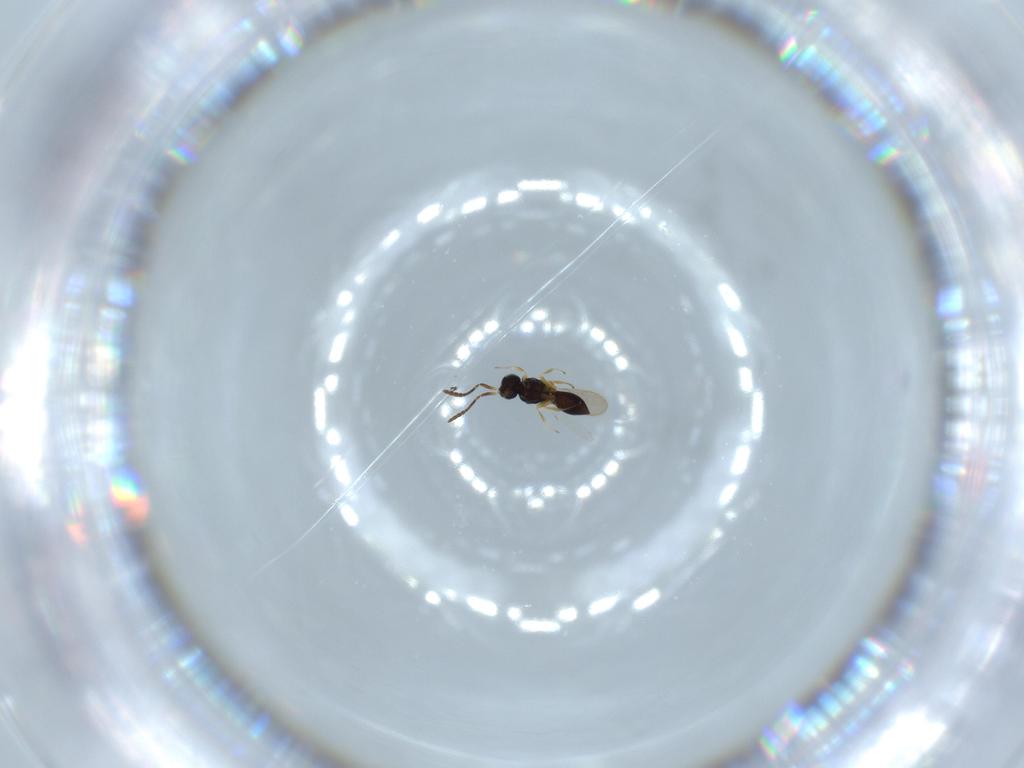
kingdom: Animalia
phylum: Arthropoda
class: Insecta
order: Hymenoptera
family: Scelionidae
